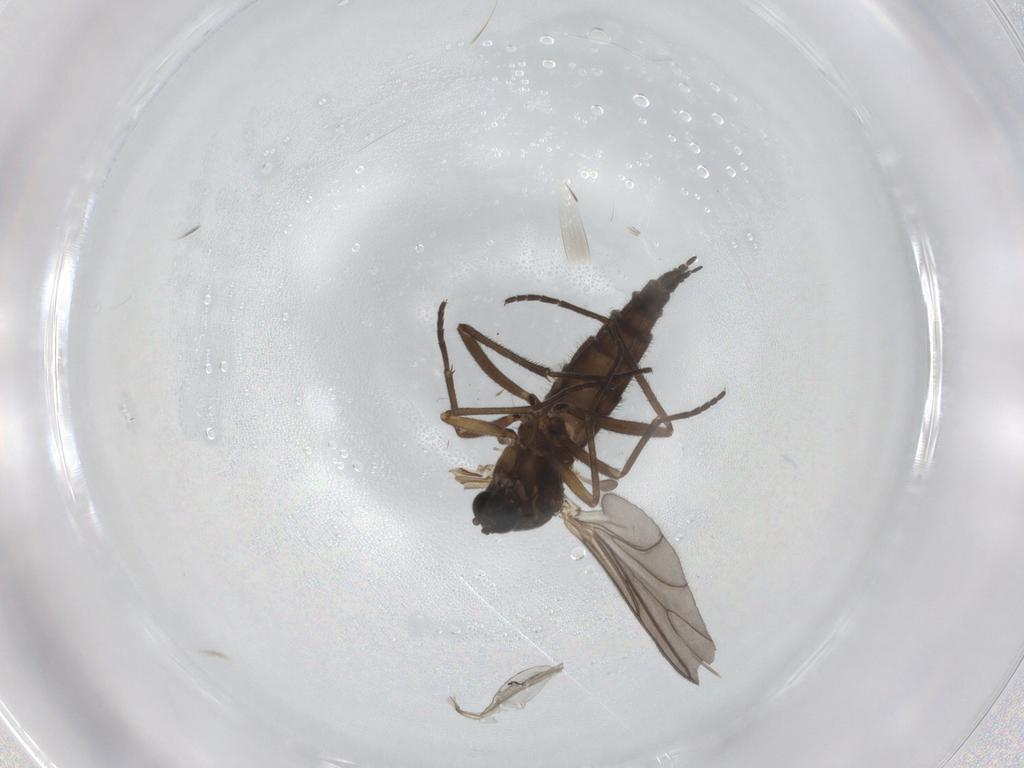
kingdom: Animalia
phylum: Arthropoda
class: Insecta
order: Diptera
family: Sciaridae
